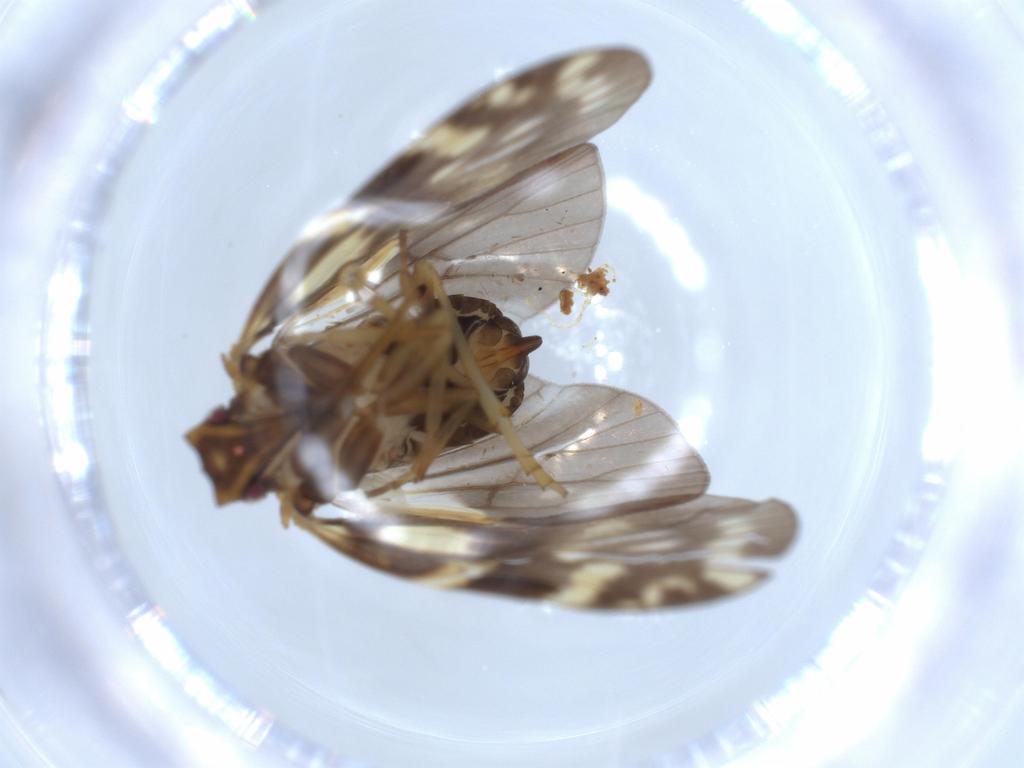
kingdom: Animalia
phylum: Arthropoda
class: Insecta
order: Hemiptera
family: Rhopalidae
